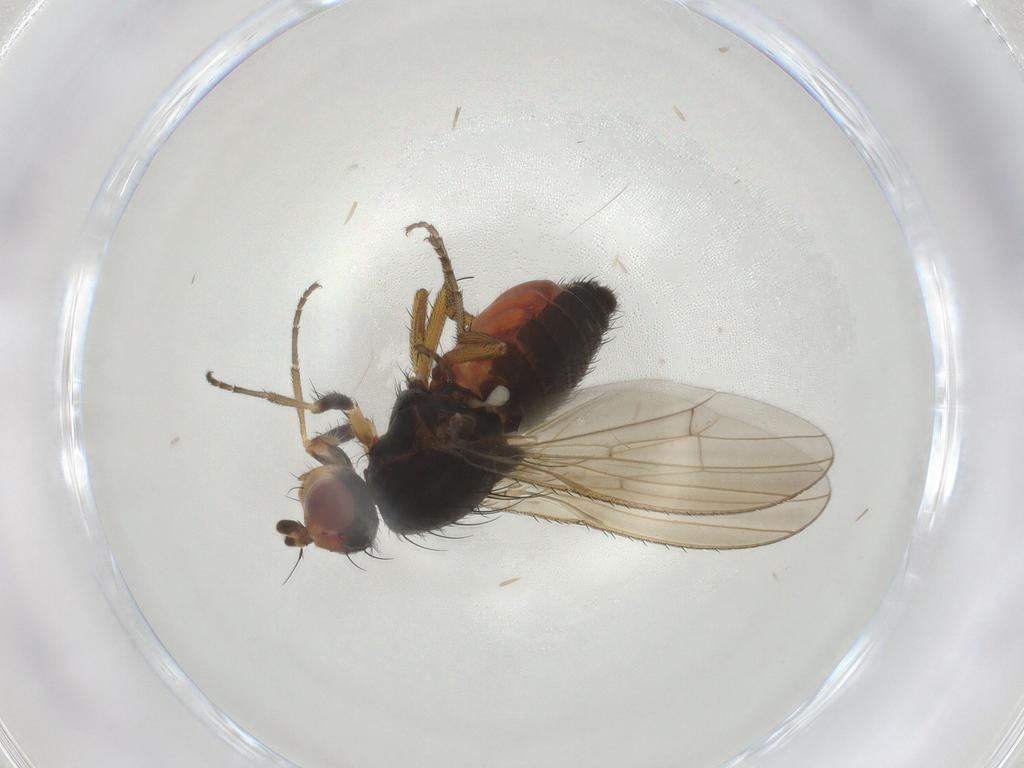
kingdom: Animalia
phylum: Arthropoda
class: Insecta
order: Diptera
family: Heleomyzidae
